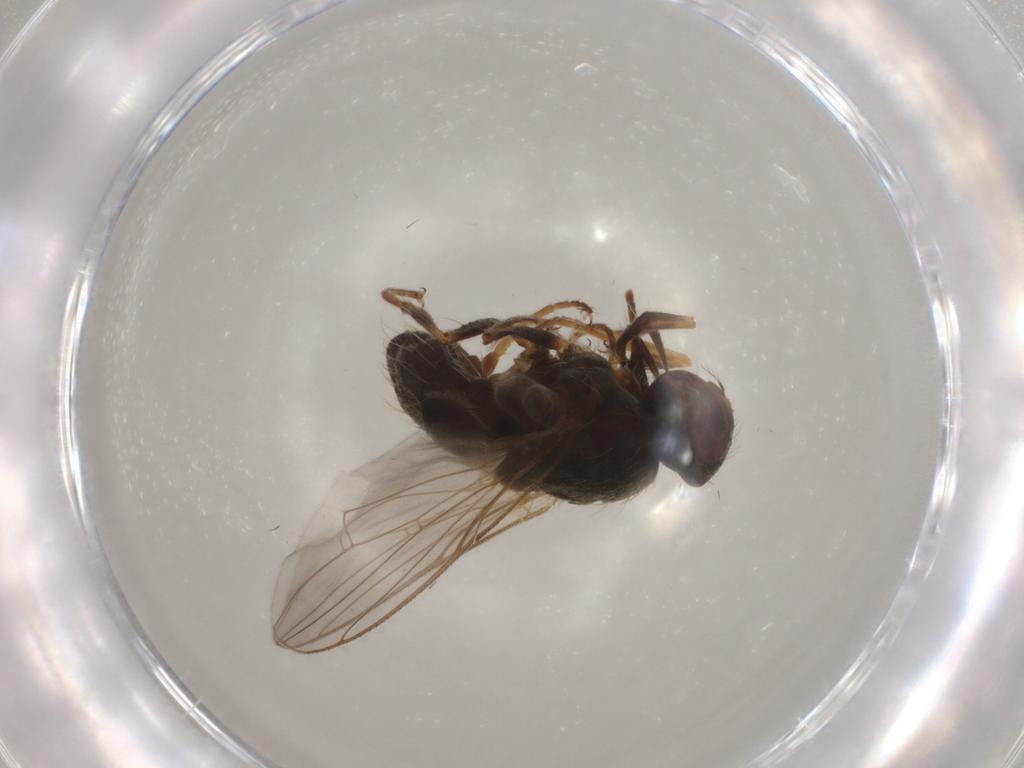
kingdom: Animalia
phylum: Arthropoda
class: Insecta
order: Diptera
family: Muscidae
